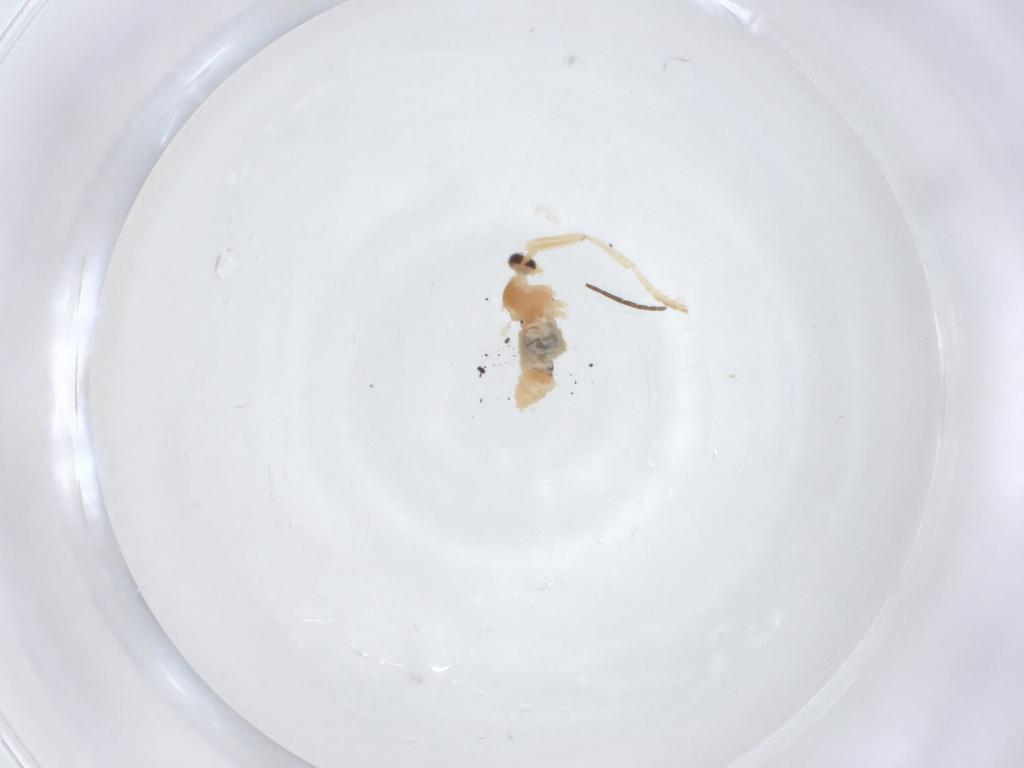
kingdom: Animalia
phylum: Arthropoda
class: Insecta
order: Diptera
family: Cecidomyiidae
